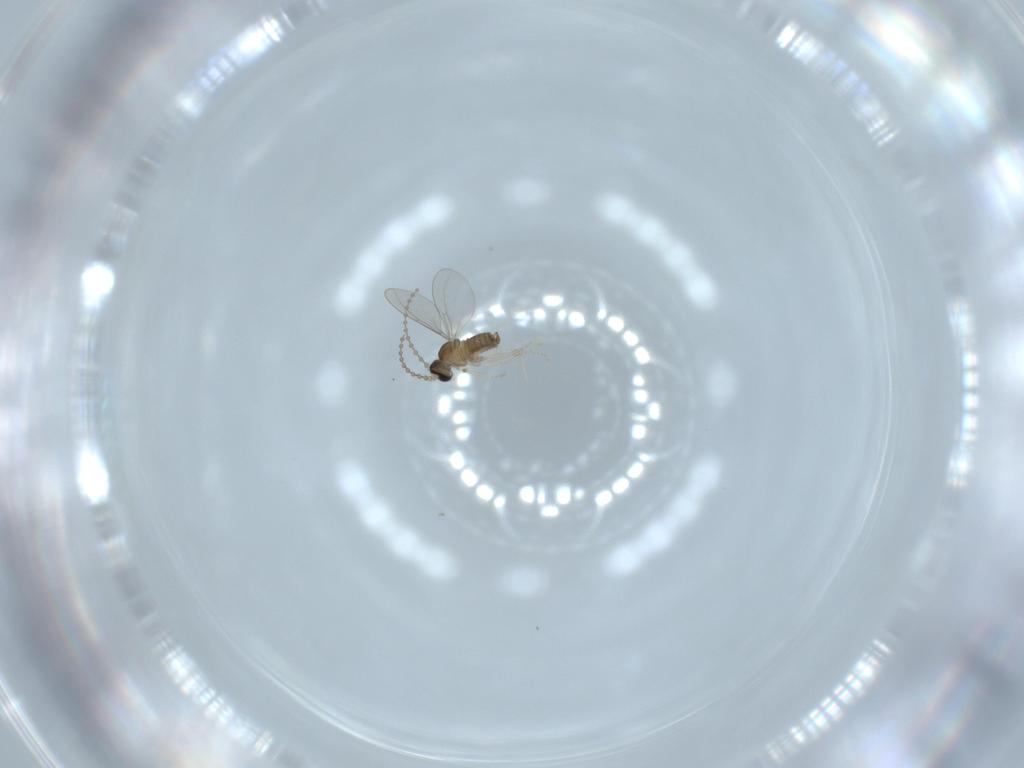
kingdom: Animalia
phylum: Arthropoda
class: Insecta
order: Diptera
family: Cecidomyiidae
